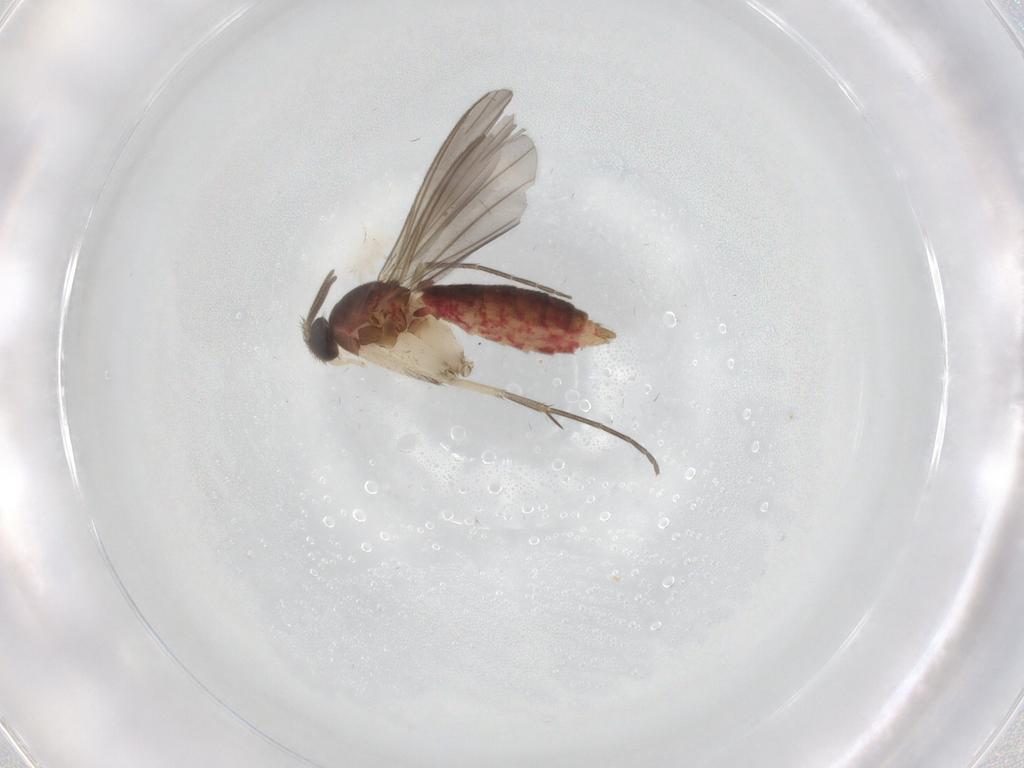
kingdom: Animalia
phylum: Arthropoda
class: Insecta
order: Diptera
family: Mycetophilidae
